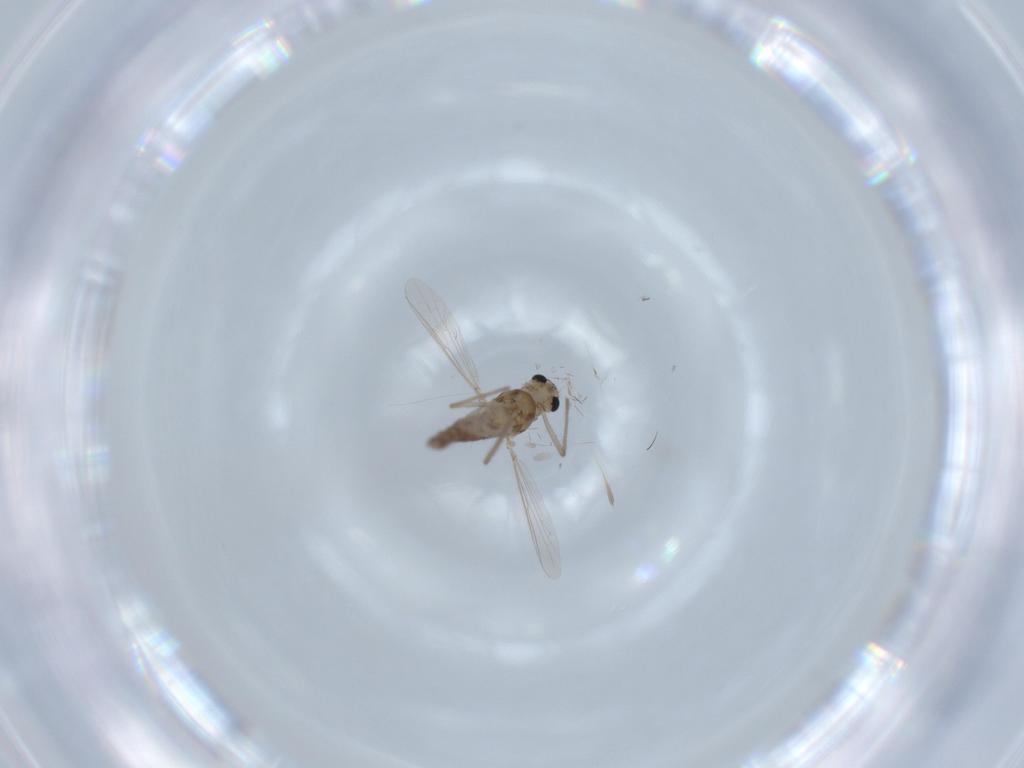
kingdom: Animalia
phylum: Arthropoda
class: Insecta
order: Diptera
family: Chironomidae
